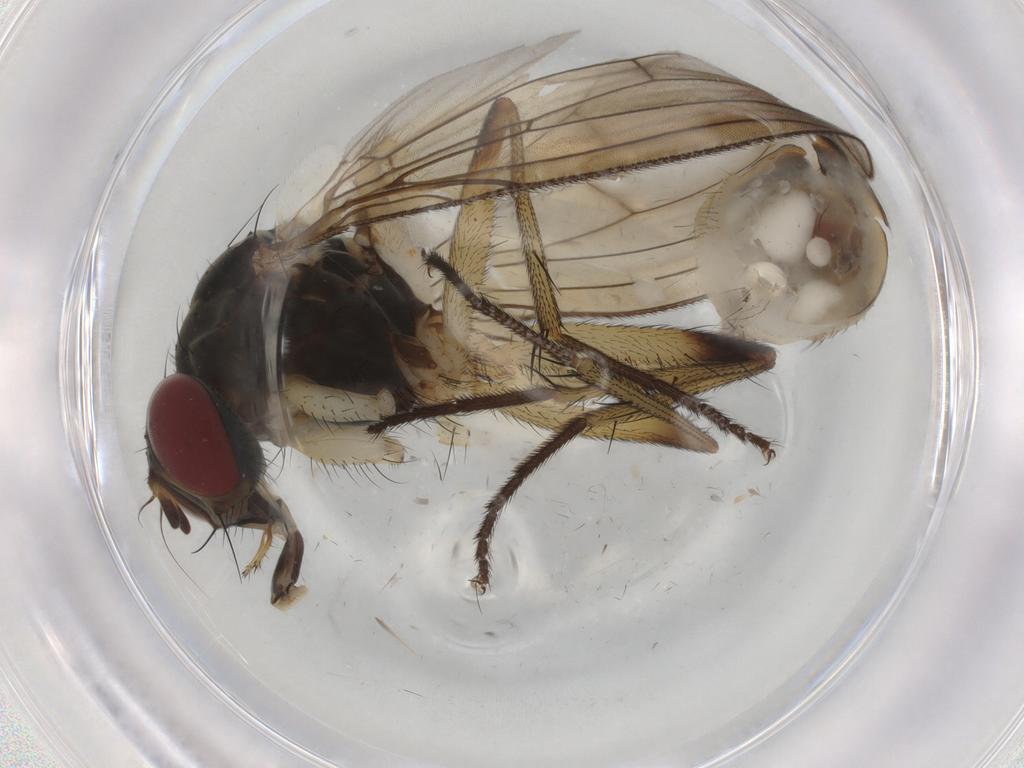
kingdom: Animalia
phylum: Arthropoda
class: Insecta
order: Diptera
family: Muscidae
